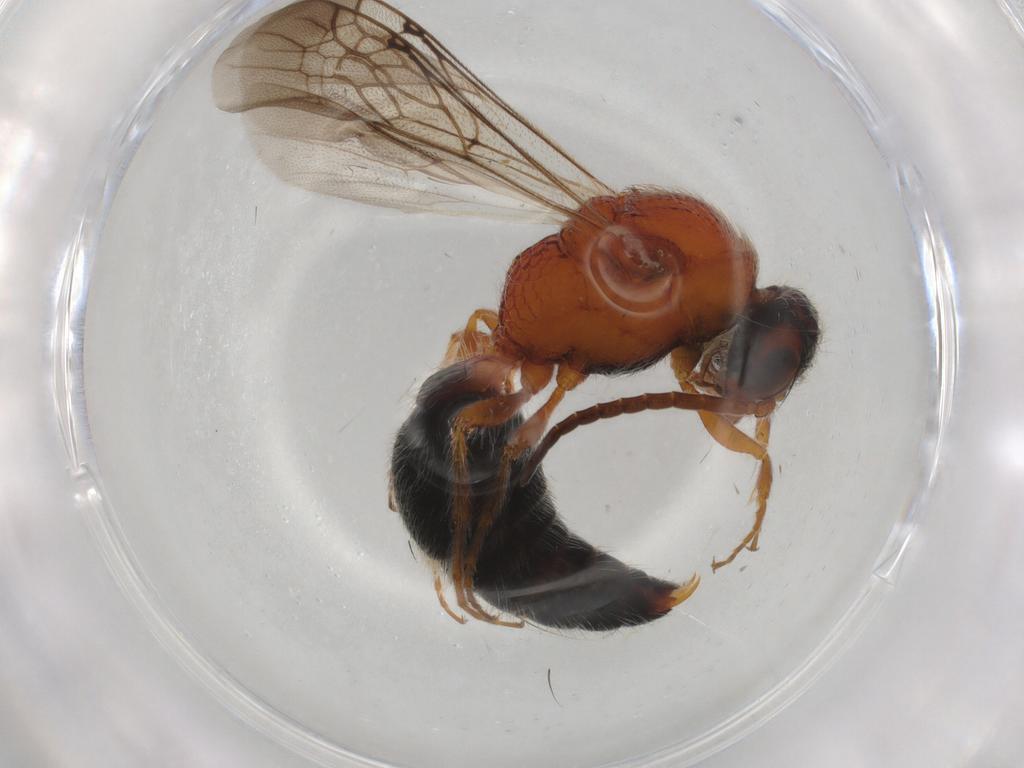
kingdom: Animalia
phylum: Arthropoda
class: Insecta
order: Hymenoptera
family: Mutillidae
